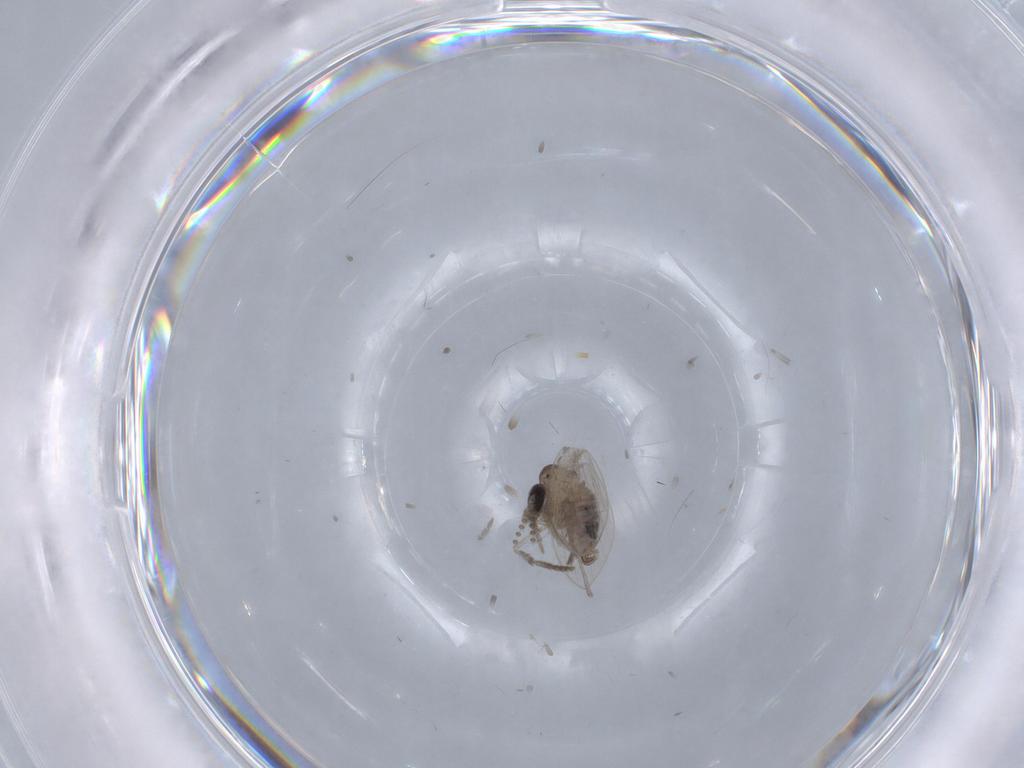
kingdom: Animalia
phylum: Arthropoda
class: Insecta
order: Diptera
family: Psychodidae
